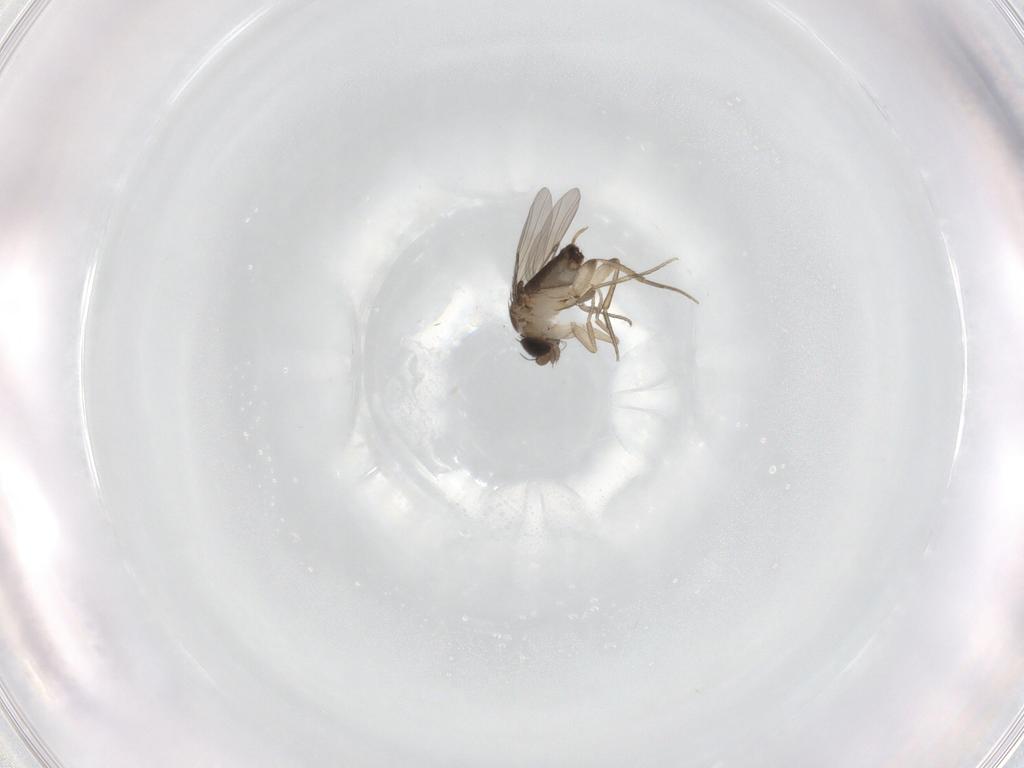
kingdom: Animalia
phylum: Arthropoda
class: Insecta
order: Diptera
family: Phoridae
